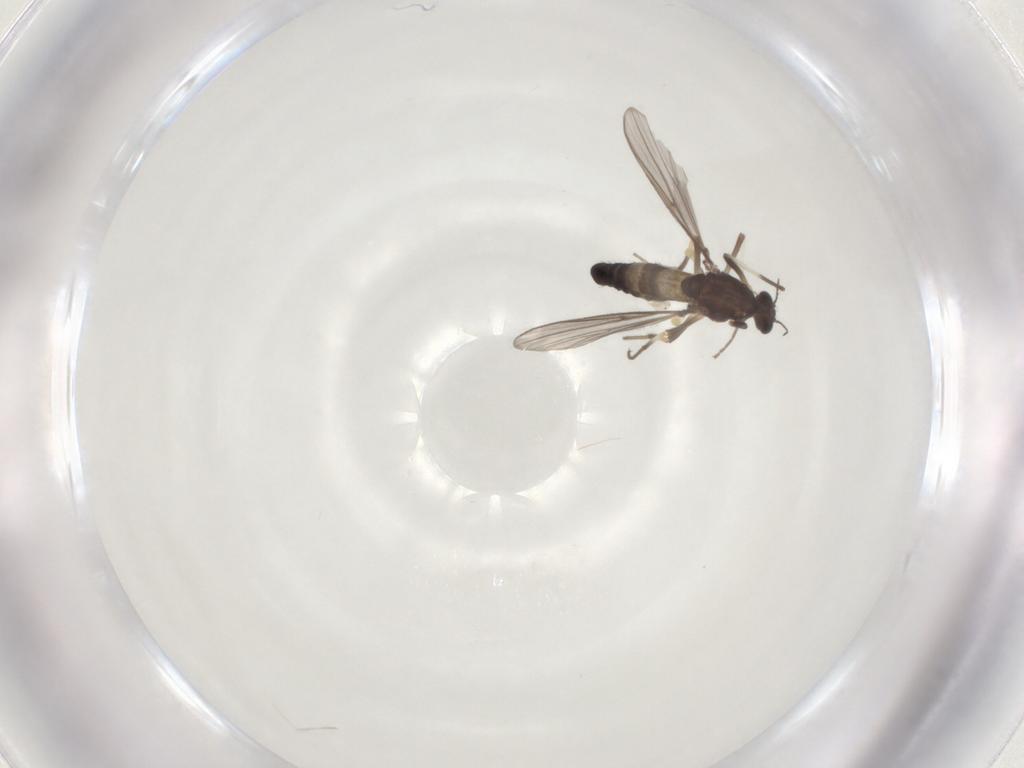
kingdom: Animalia
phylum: Arthropoda
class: Insecta
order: Diptera
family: Chironomidae
